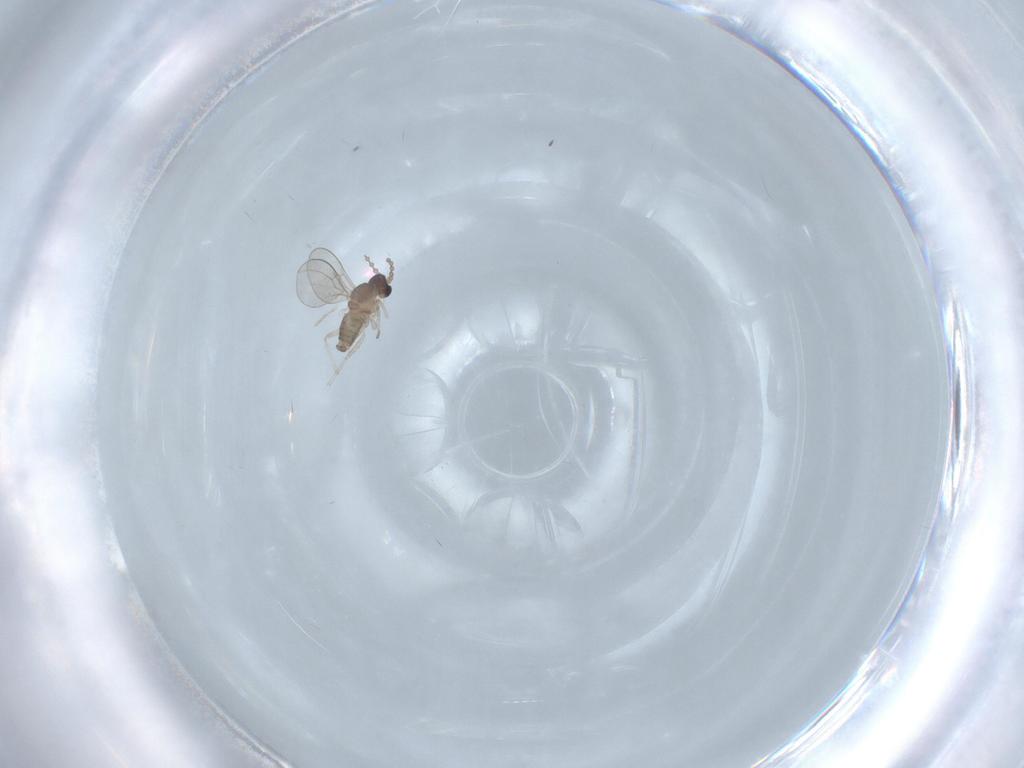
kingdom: Animalia
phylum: Arthropoda
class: Insecta
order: Diptera
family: Cecidomyiidae
